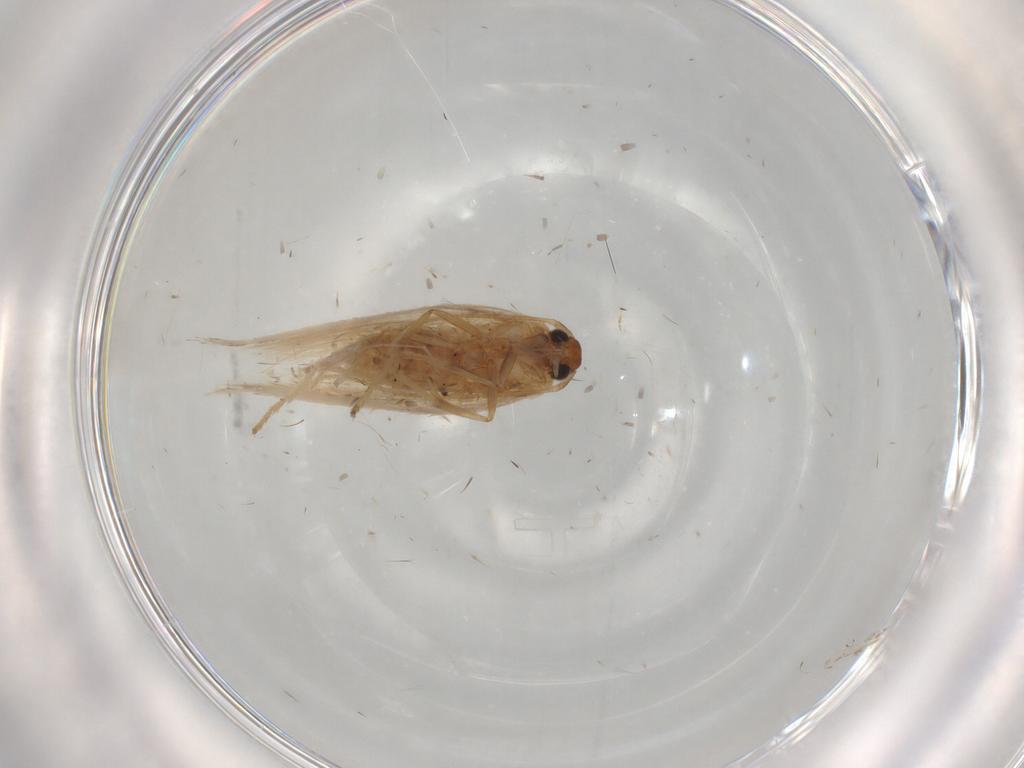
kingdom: Animalia
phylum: Arthropoda
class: Insecta
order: Lepidoptera
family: Gelechiidae
